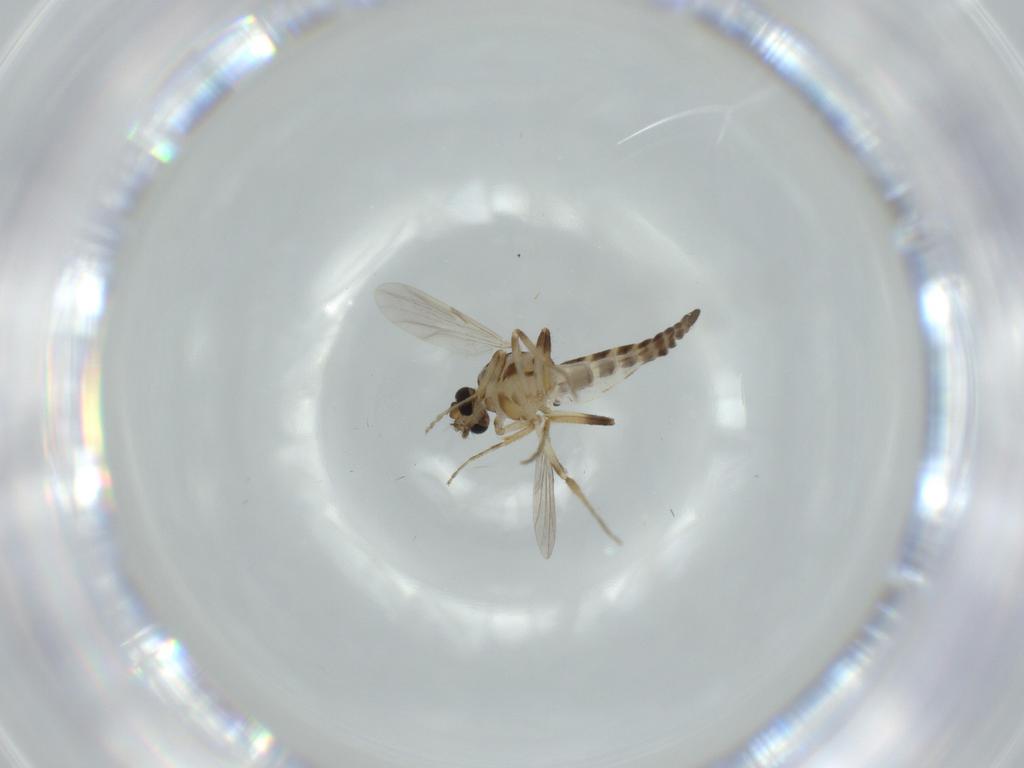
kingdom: Animalia
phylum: Arthropoda
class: Insecta
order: Diptera
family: Ceratopogonidae
